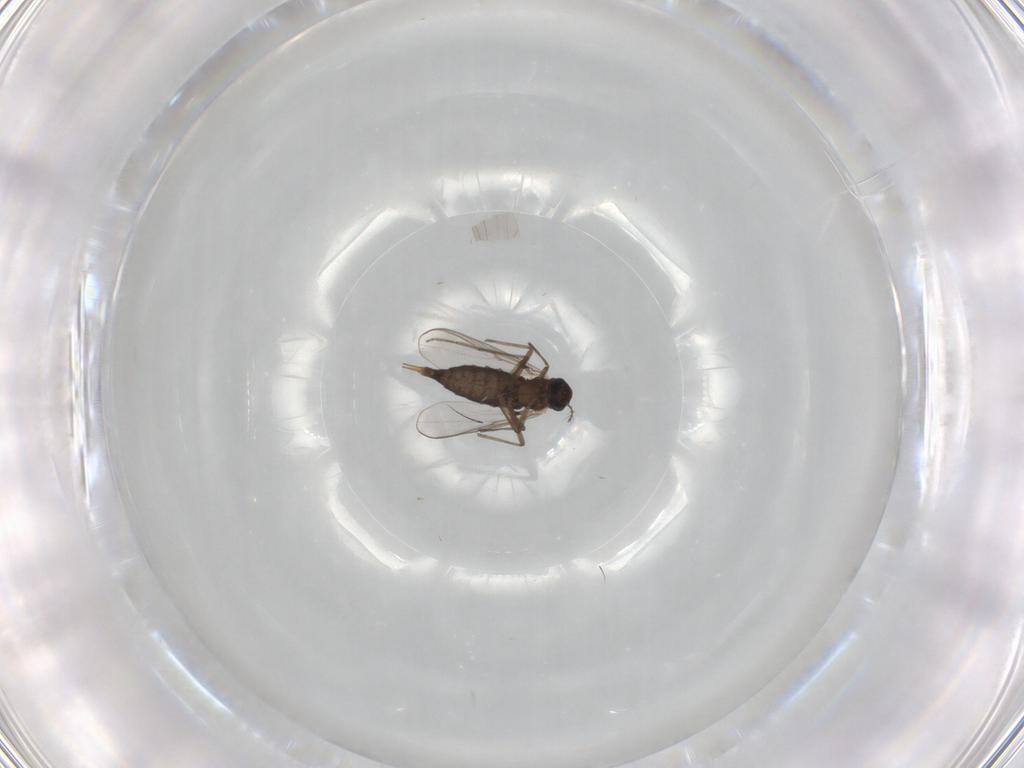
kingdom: Animalia
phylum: Arthropoda
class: Insecta
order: Diptera
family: Chironomidae
